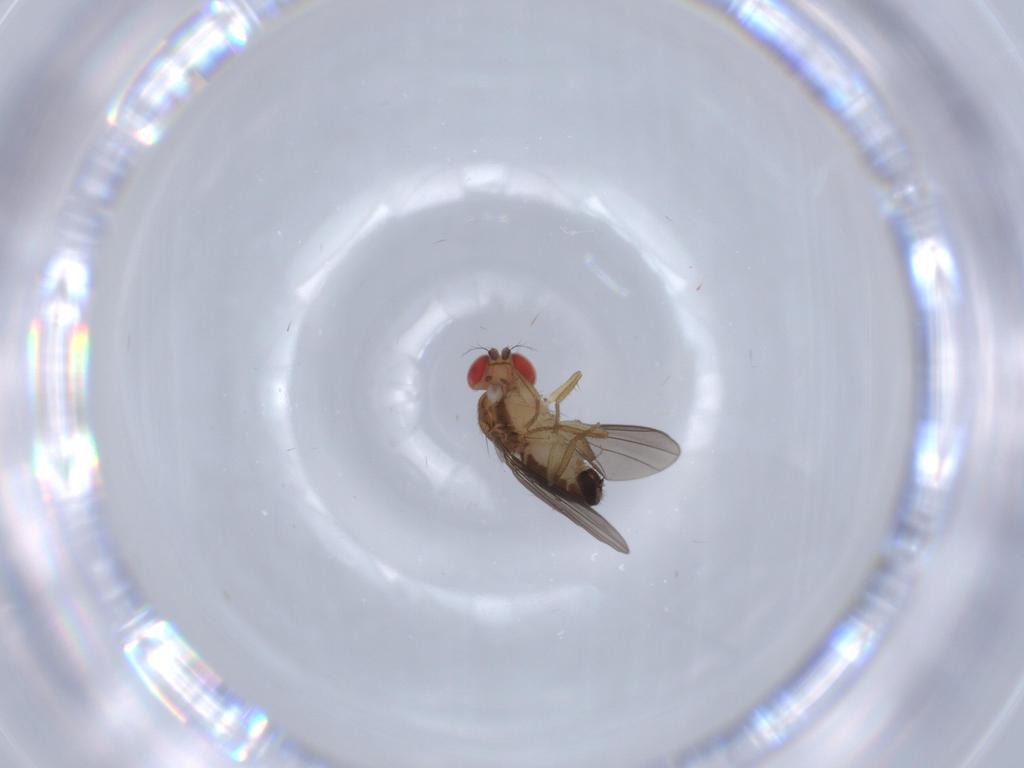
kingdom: Animalia
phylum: Arthropoda
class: Insecta
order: Diptera
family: Drosophilidae
